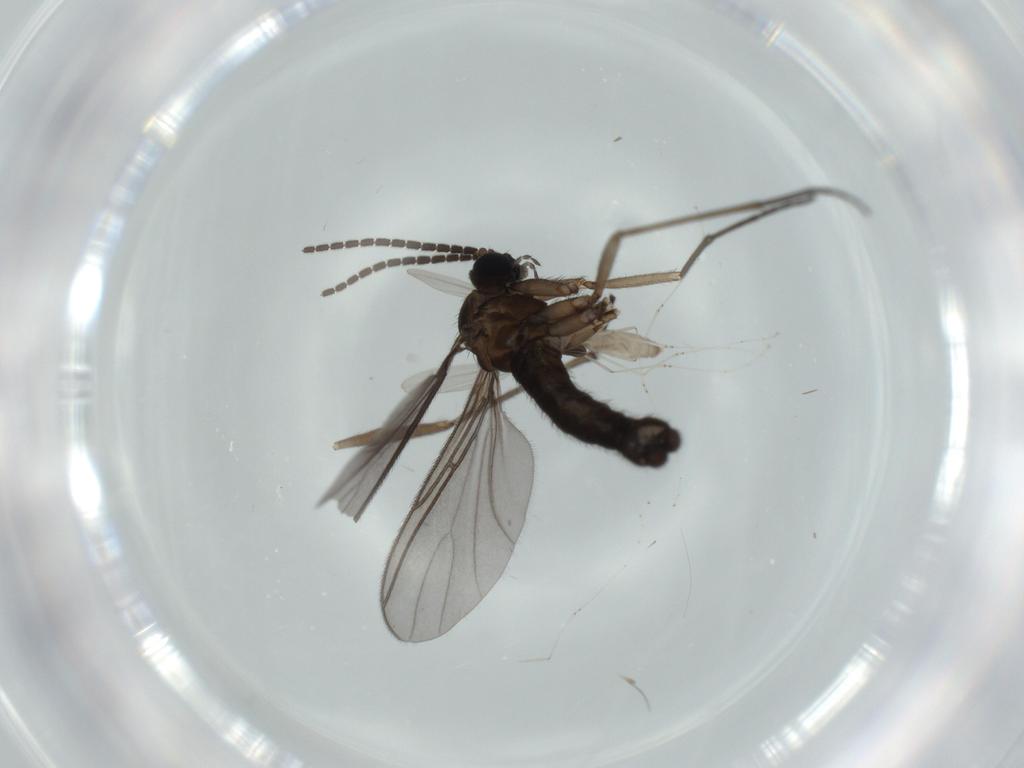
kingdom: Animalia
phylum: Arthropoda
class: Insecta
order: Diptera
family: Sciaridae
